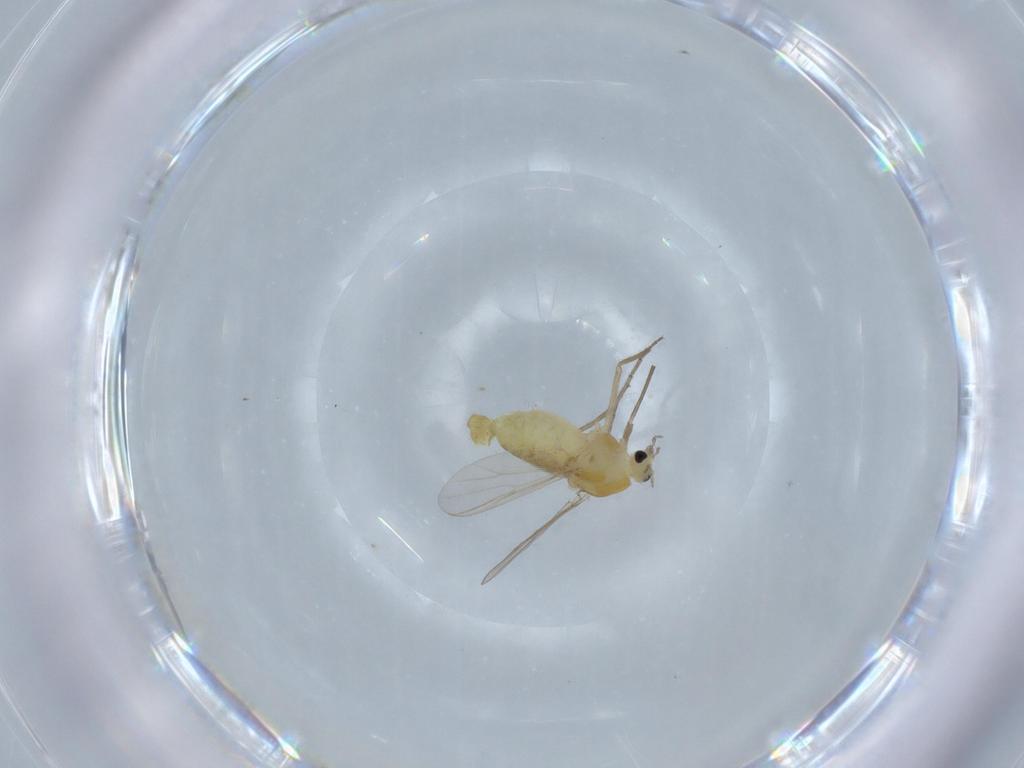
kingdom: Animalia
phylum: Arthropoda
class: Insecta
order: Diptera
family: Chironomidae
